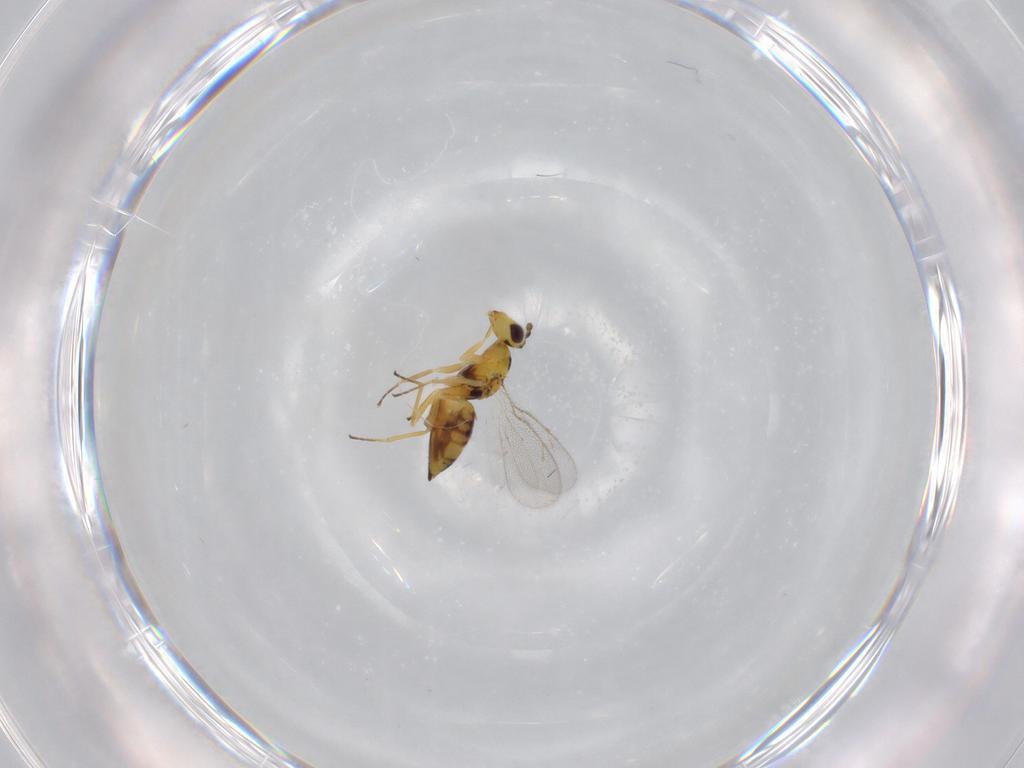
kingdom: Animalia
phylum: Arthropoda
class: Insecta
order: Hymenoptera
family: Eulophidae
